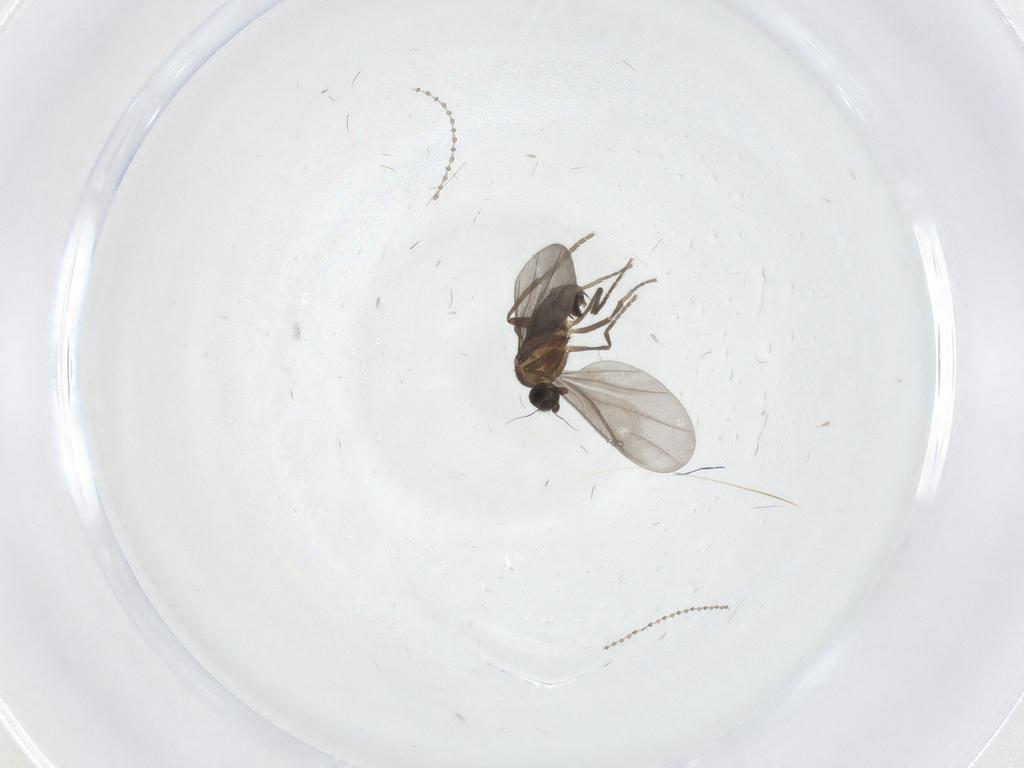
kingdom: Animalia
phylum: Arthropoda
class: Insecta
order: Diptera
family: Phoridae
